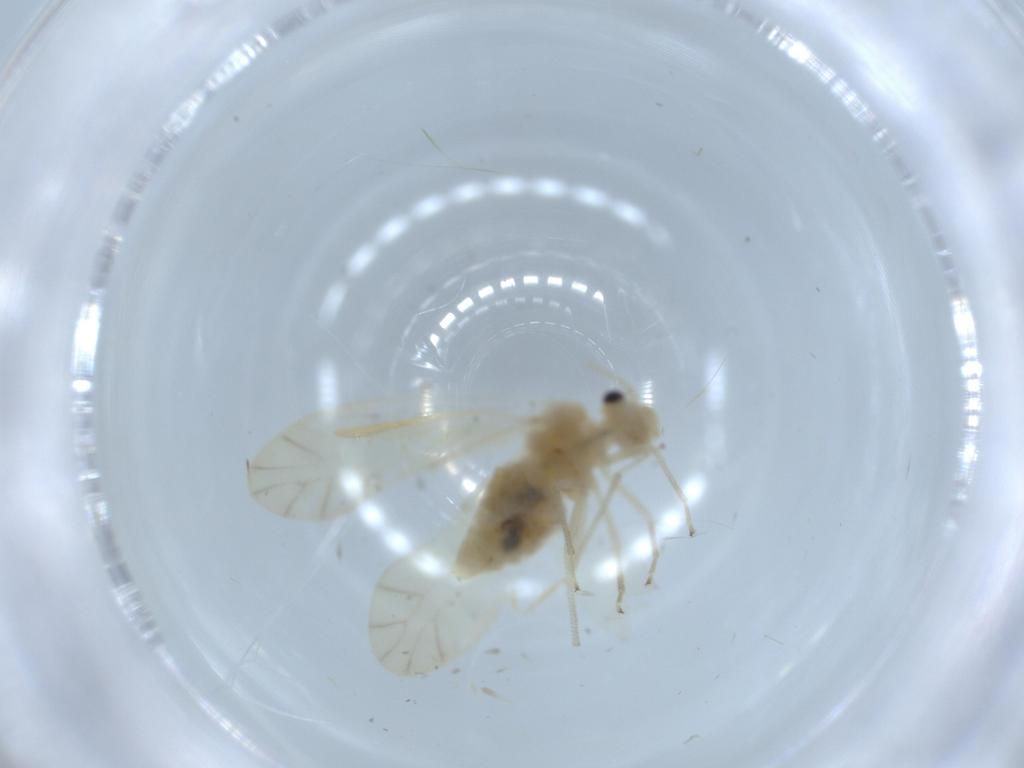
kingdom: Animalia
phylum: Arthropoda
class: Insecta
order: Psocodea
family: Caeciliusidae
